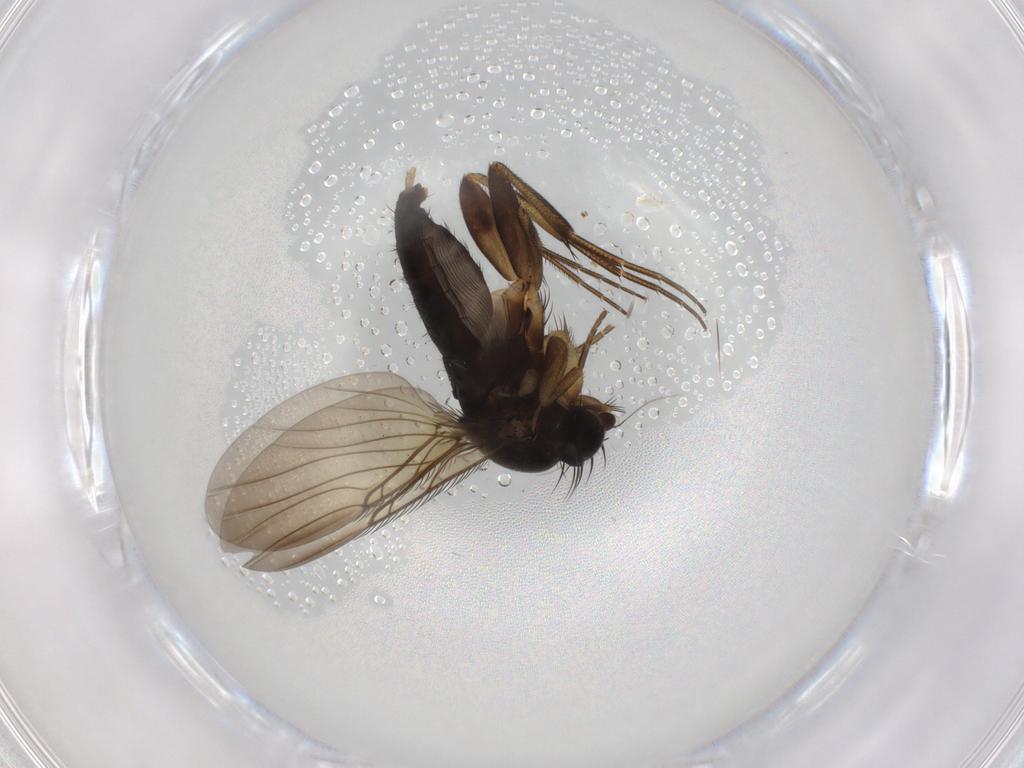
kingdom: Animalia
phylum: Arthropoda
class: Insecta
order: Diptera
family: Phoridae
